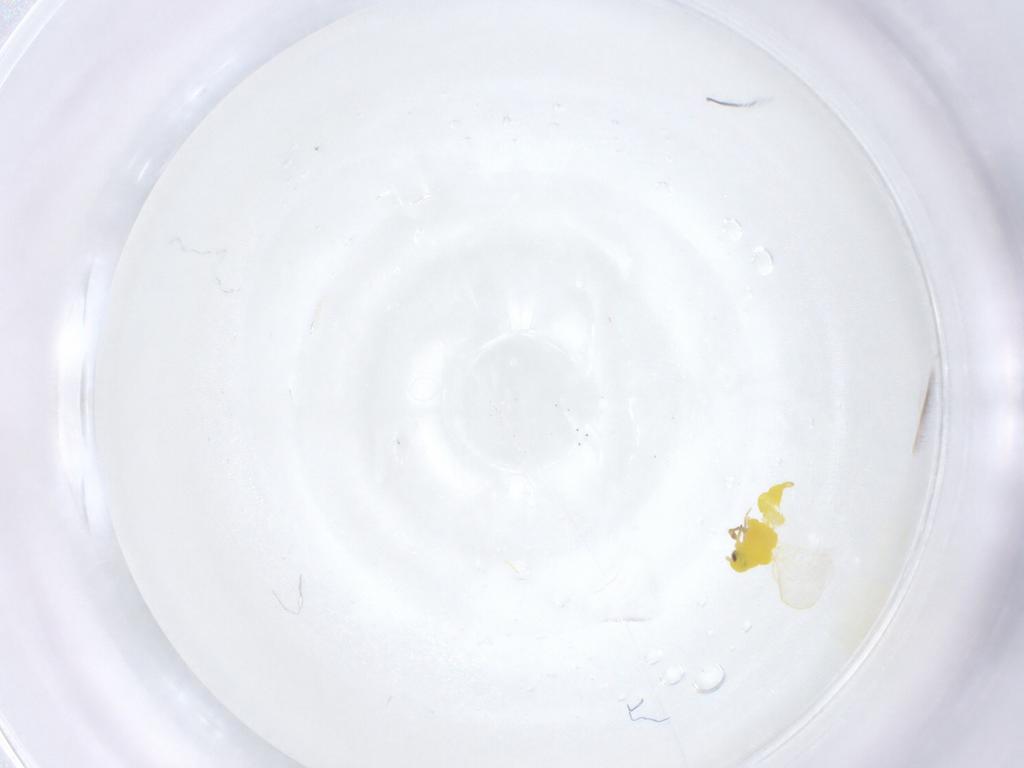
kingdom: Animalia
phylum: Arthropoda
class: Insecta
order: Hemiptera
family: Aleyrodidae
